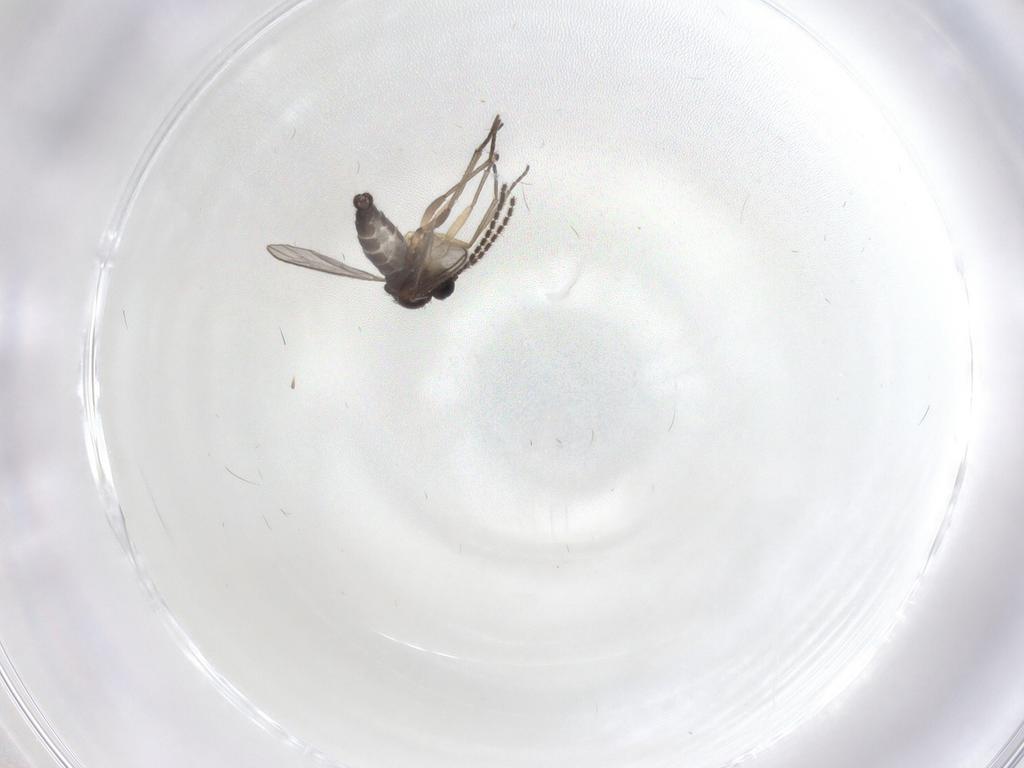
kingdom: Animalia
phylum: Arthropoda
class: Insecta
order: Diptera
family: Sciaridae
